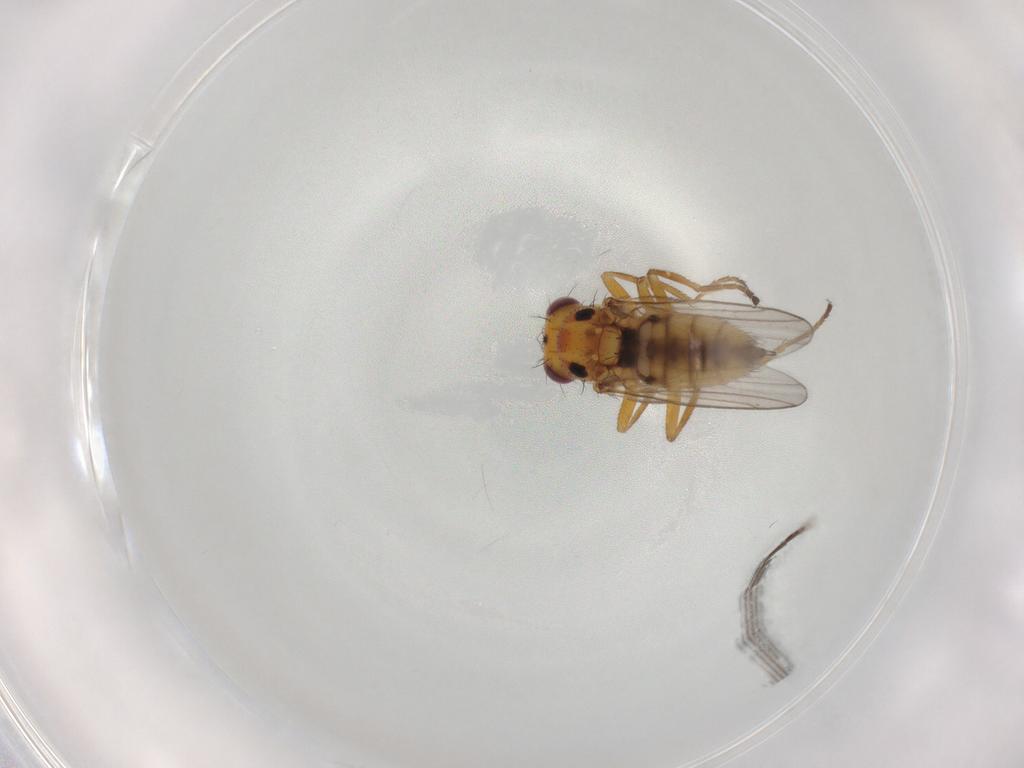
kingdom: Animalia
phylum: Arthropoda
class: Insecta
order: Diptera
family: Chloropidae
